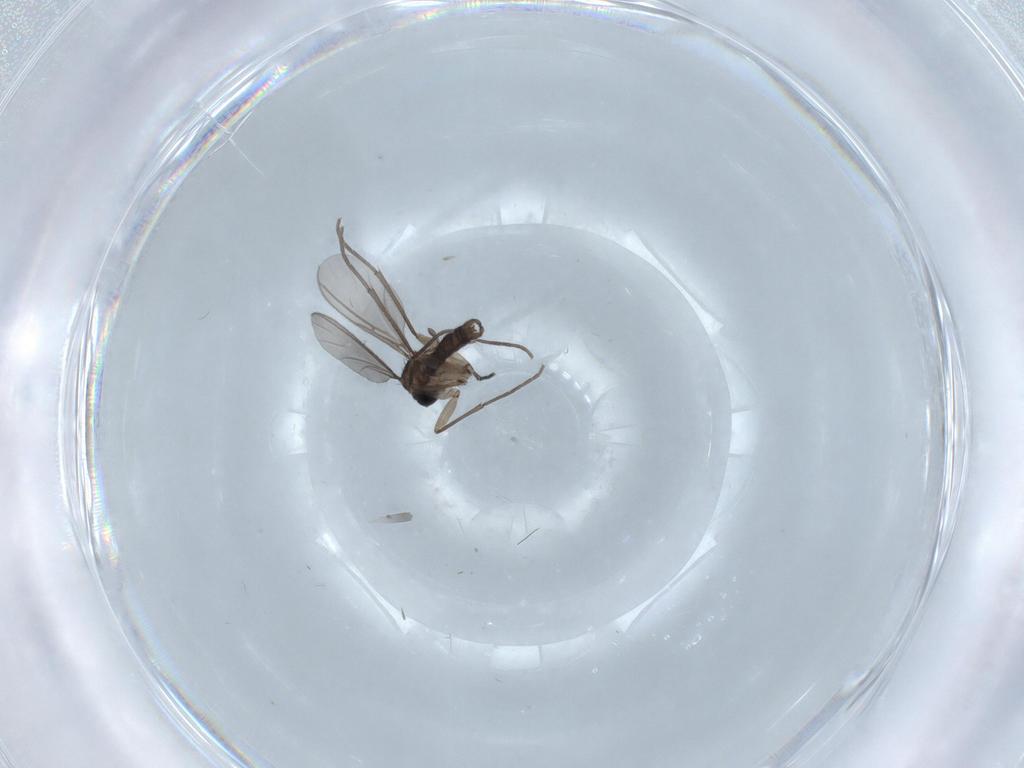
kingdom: Animalia
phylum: Arthropoda
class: Insecta
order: Diptera
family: Sciaridae
